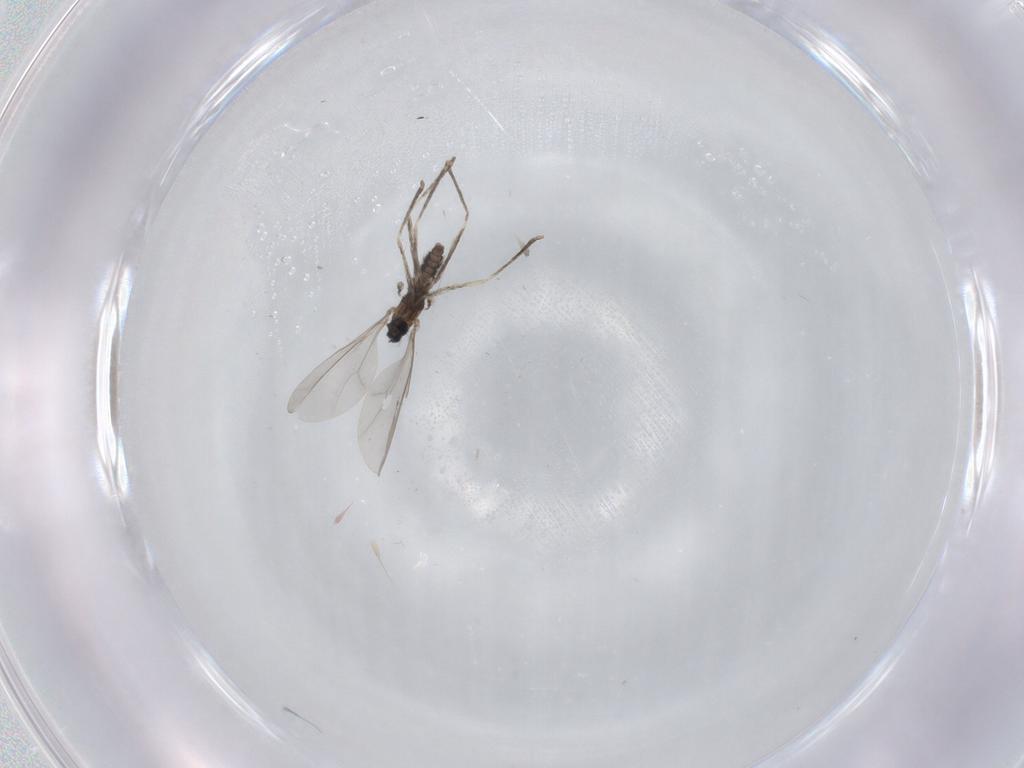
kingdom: Animalia
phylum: Arthropoda
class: Insecta
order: Diptera
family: Cecidomyiidae
